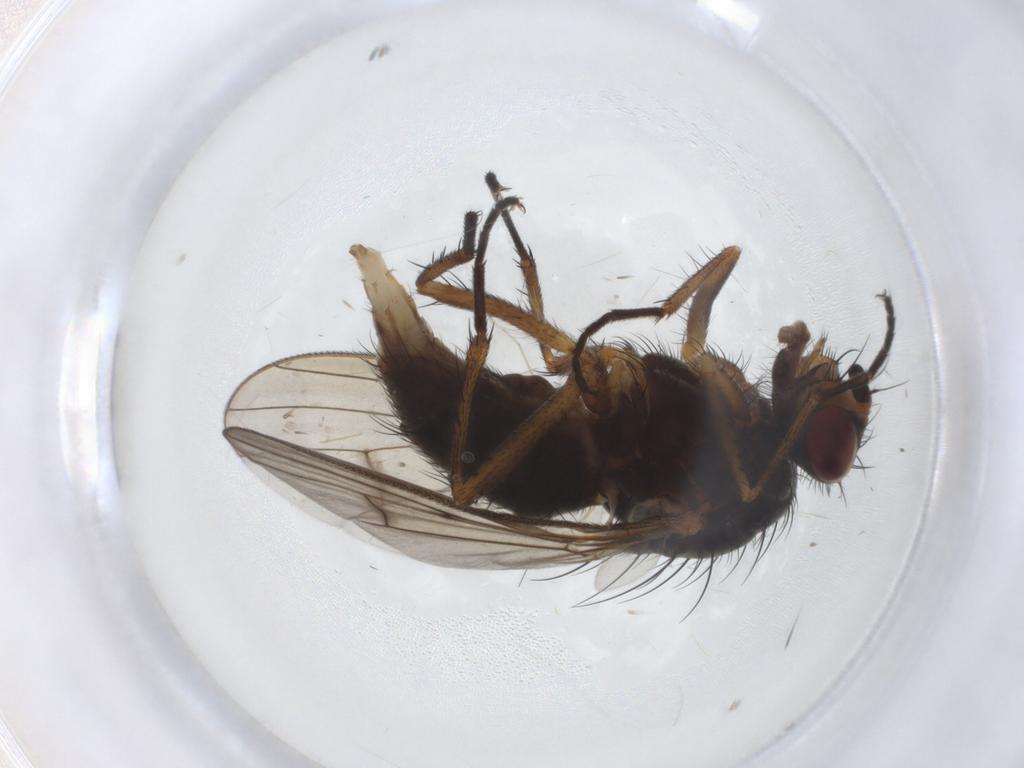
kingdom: Animalia
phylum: Arthropoda
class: Insecta
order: Diptera
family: Anthomyiidae
